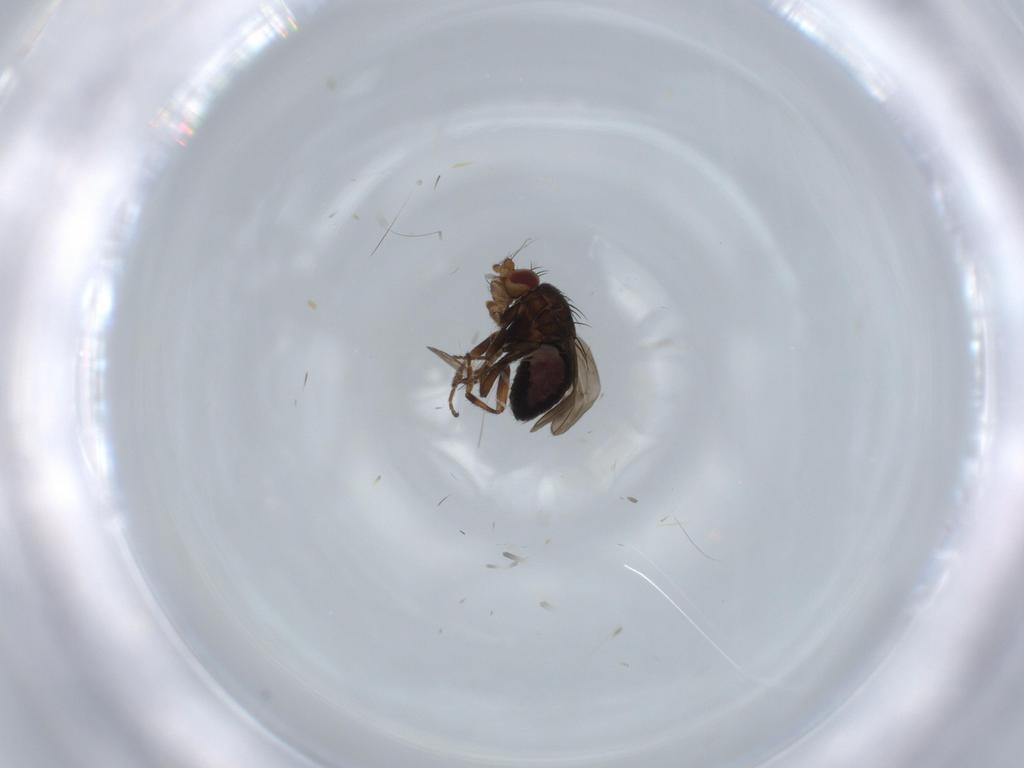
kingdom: Animalia
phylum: Arthropoda
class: Insecta
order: Diptera
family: Sphaeroceridae
